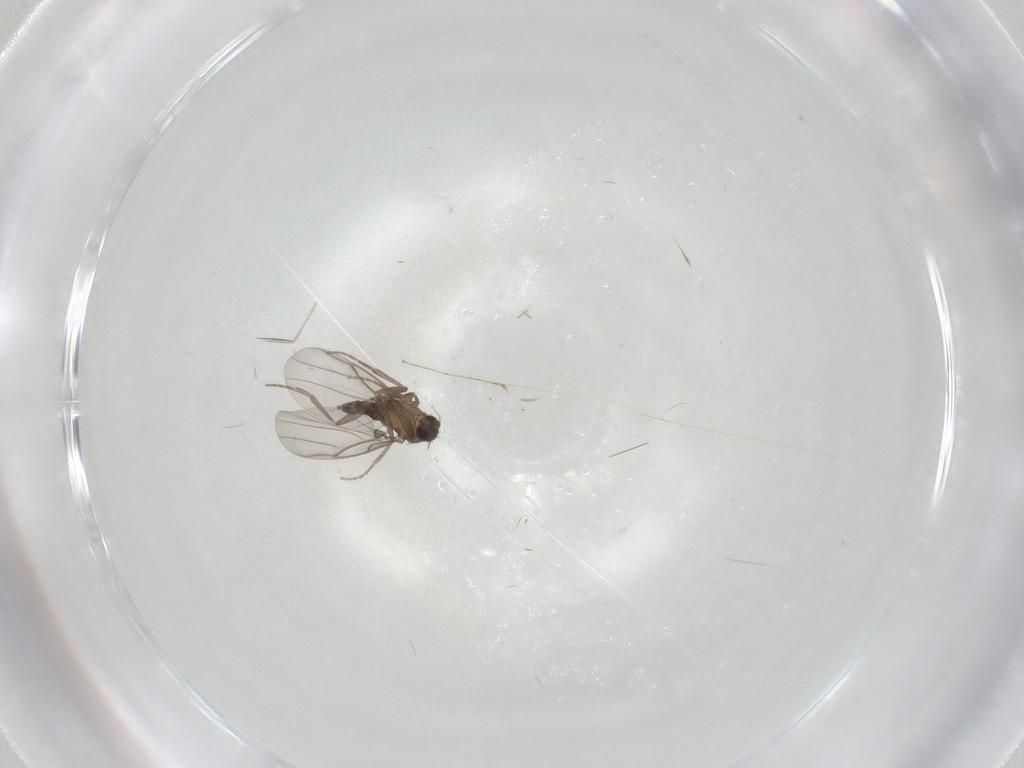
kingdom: Animalia
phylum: Arthropoda
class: Insecta
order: Diptera
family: Phoridae
